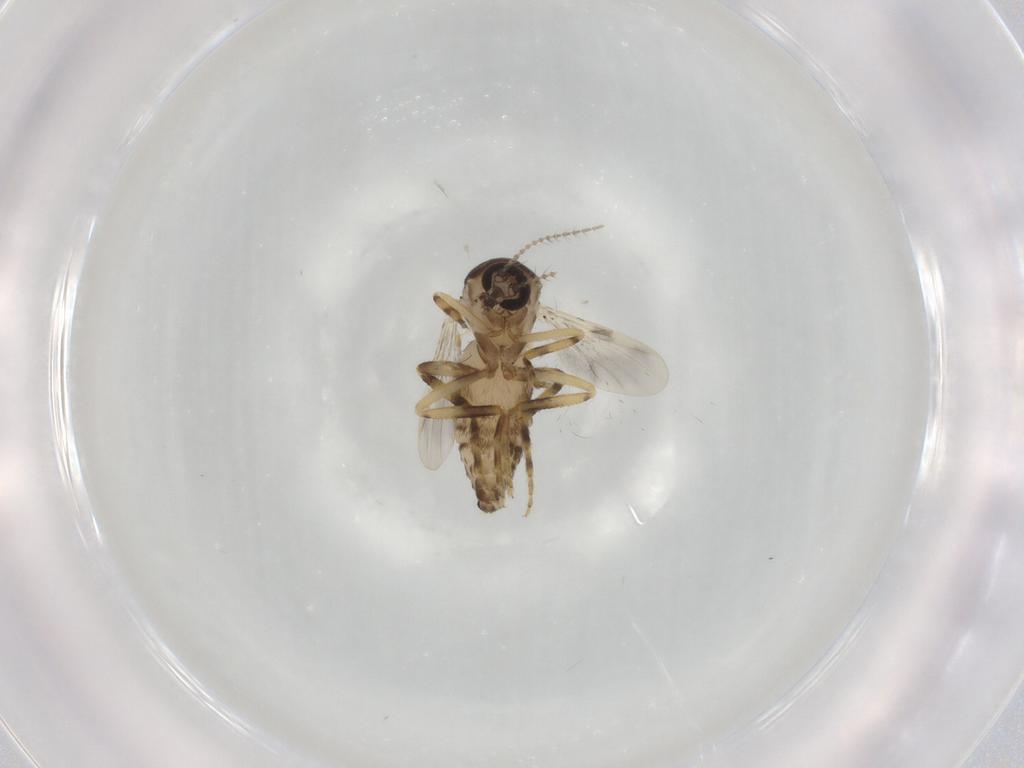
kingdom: Animalia
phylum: Arthropoda
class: Insecta
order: Diptera
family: Ceratopogonidae
